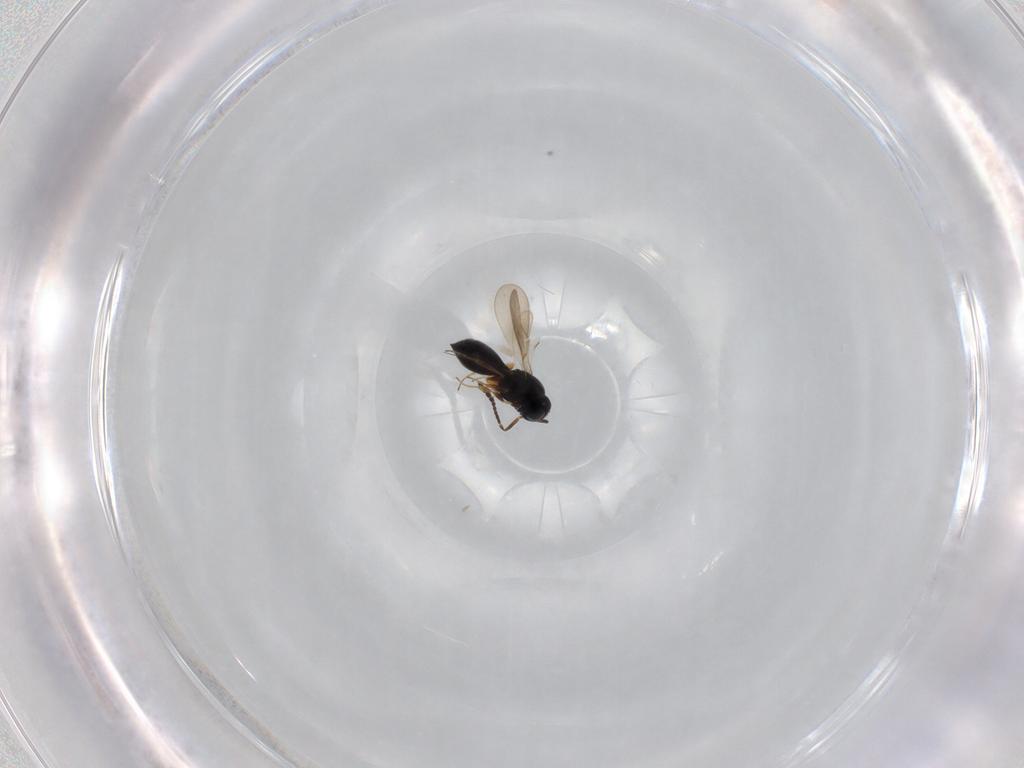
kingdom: Animalia
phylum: Arthropoda
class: Insecta
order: Hymenoptera
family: Scelionidae
